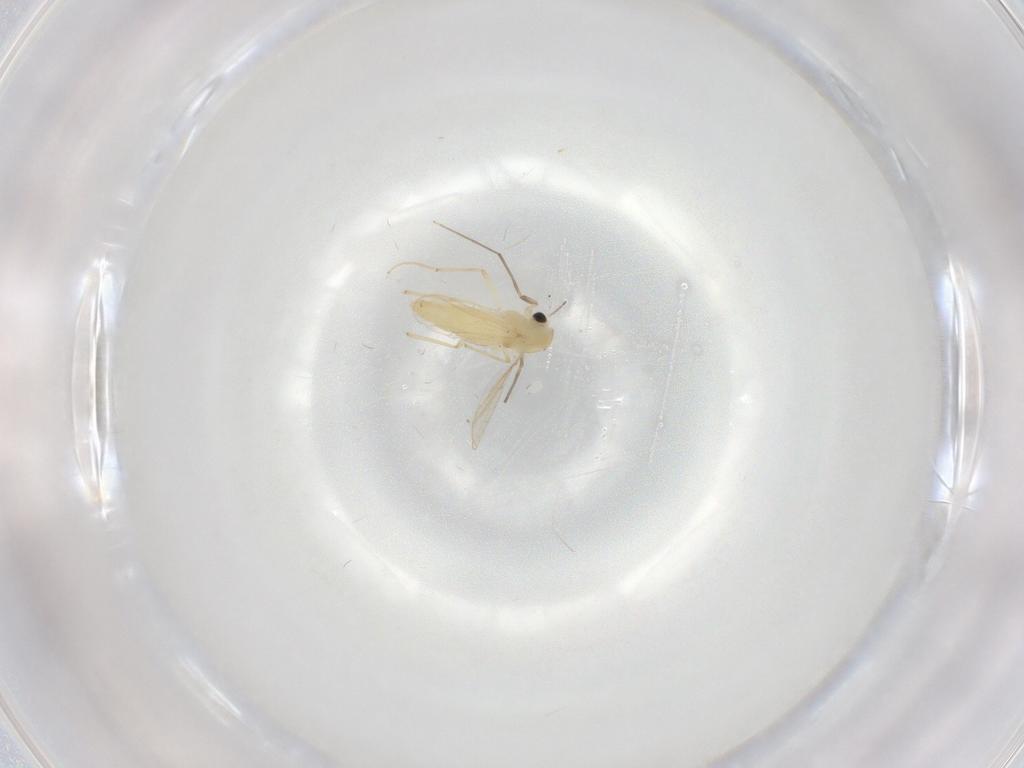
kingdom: Animalia
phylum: Arthropoda
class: Insecta
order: Diptera
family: Chironomidae
